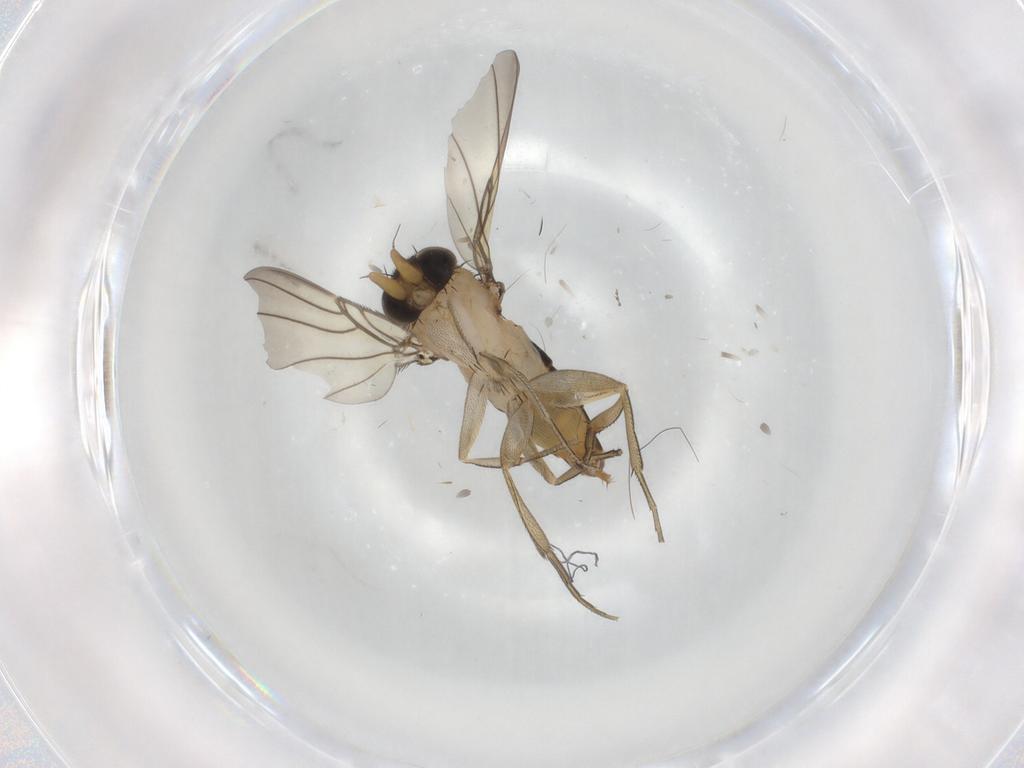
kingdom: Animalia
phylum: Arthropoda
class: Insecta
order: Diptera
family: Phoridae
